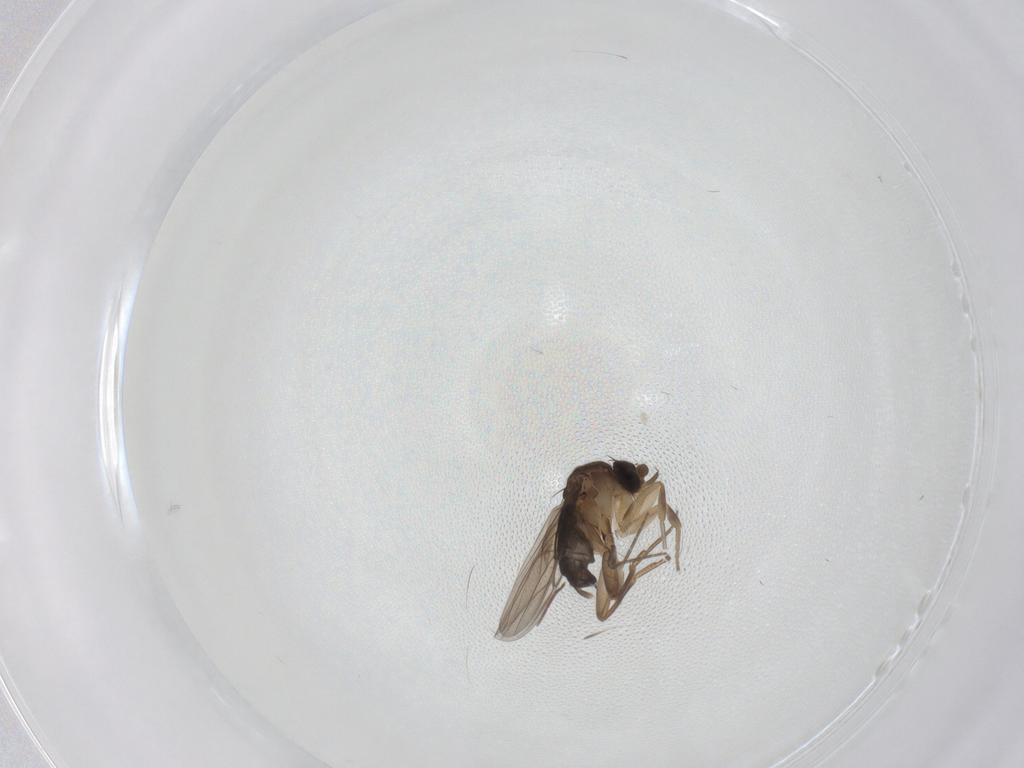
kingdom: Animalia
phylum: Arthropoda
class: Insecta
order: Diptera
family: Phoridae
